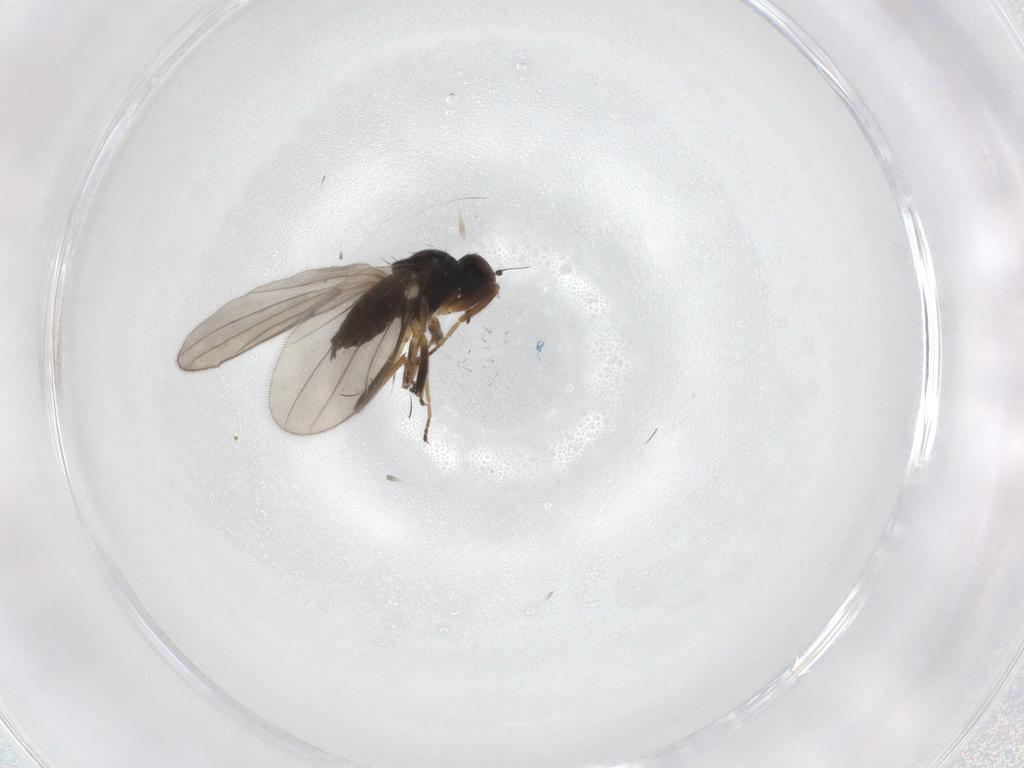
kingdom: Animalia
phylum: Arthropoda
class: Insecta
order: Diptera
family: Hybotidae
